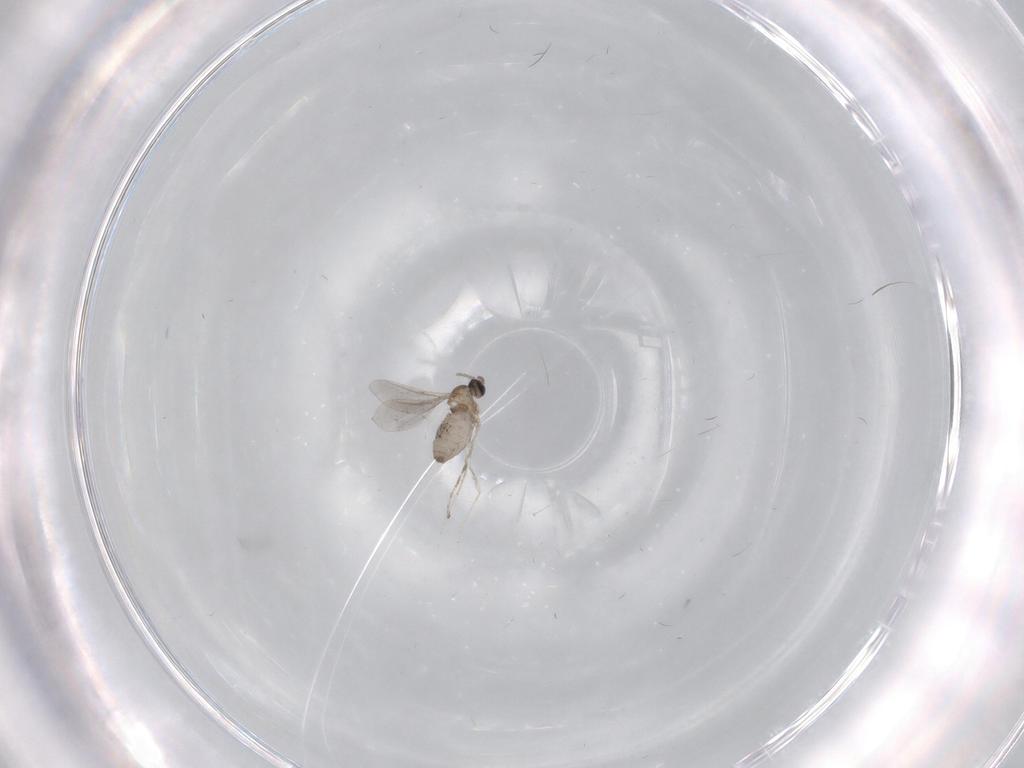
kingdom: Animalia
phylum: Arthropoda
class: Insecta
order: Diptera
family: Cecidomyiidae
